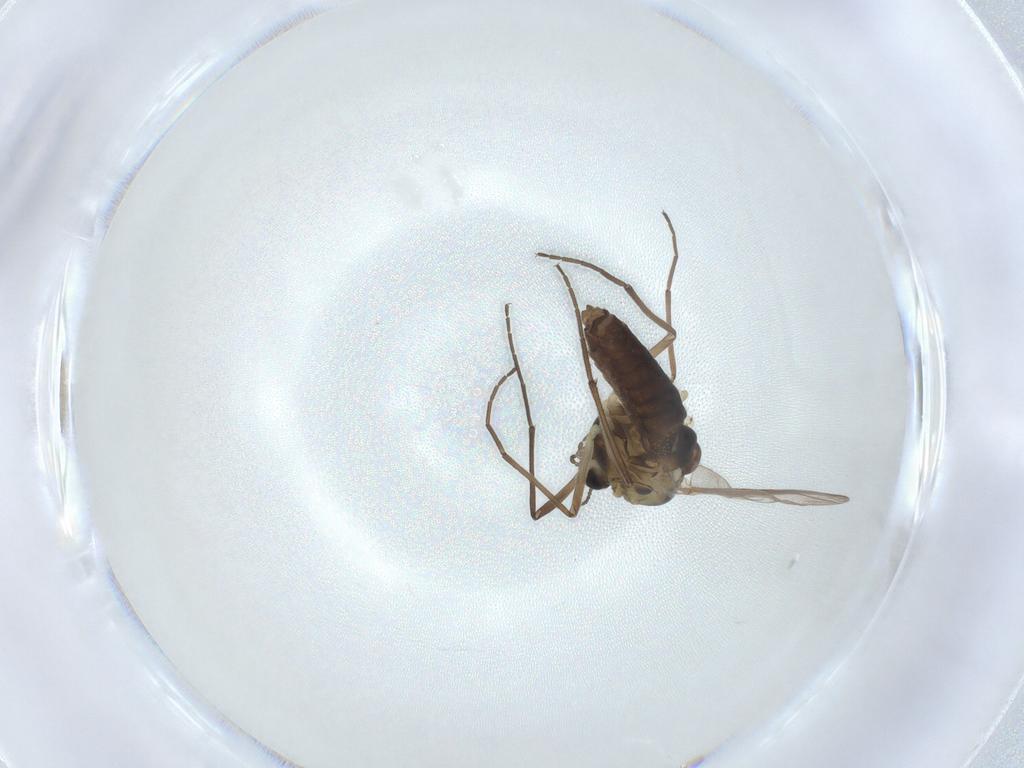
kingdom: Animalia
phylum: Arthropoda
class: Insecta
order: Diptera
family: Chironomidae
